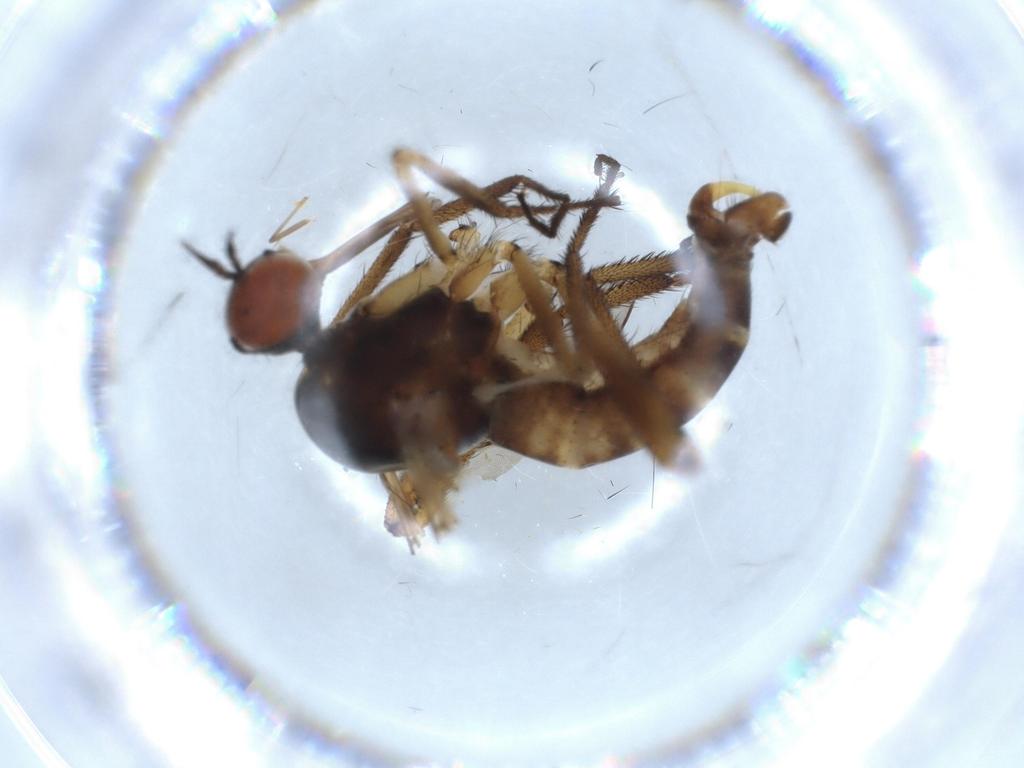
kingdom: Animalia
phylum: Arthropoda
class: Insecta
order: Diptera
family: Empididae
